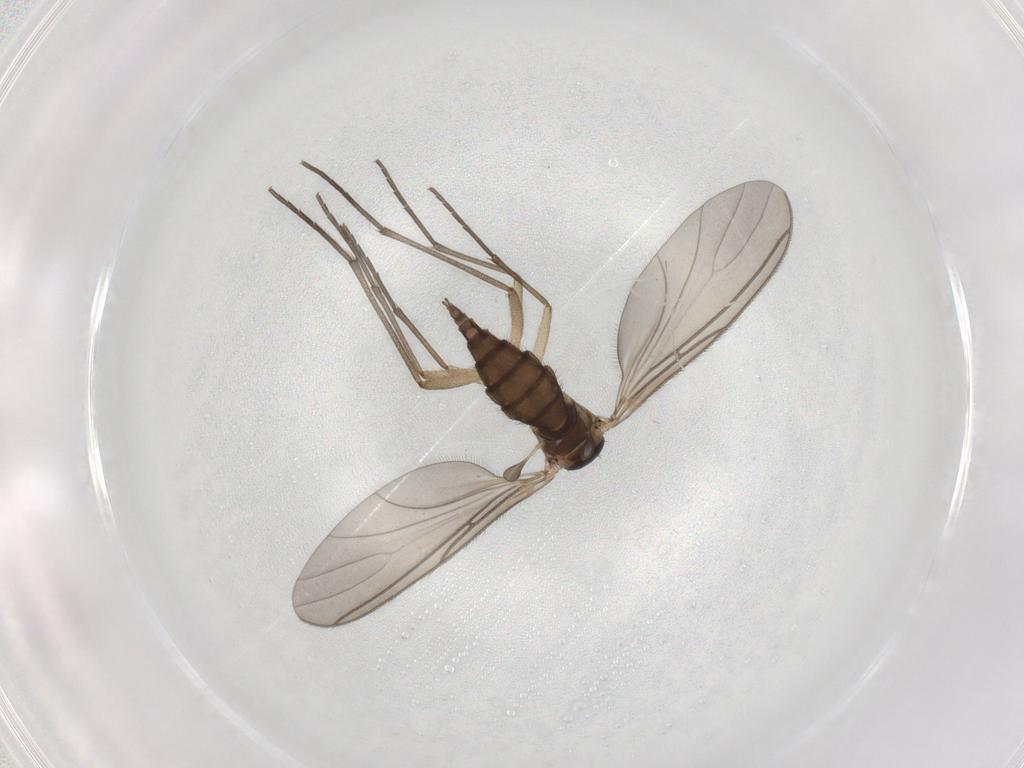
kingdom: Animalia
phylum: Arthropoda
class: Insecta
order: Diptera
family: Sciaridae
